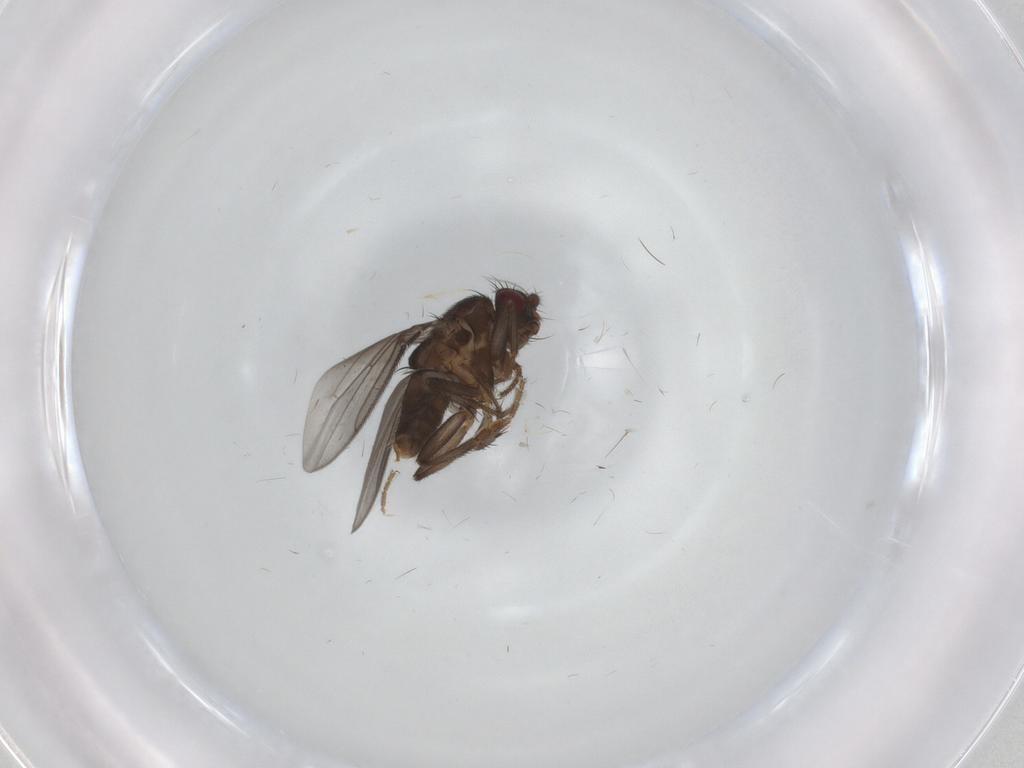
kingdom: Animalia
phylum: Arthropoda
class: Insecta
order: Diptera
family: Sphaeroceridae
